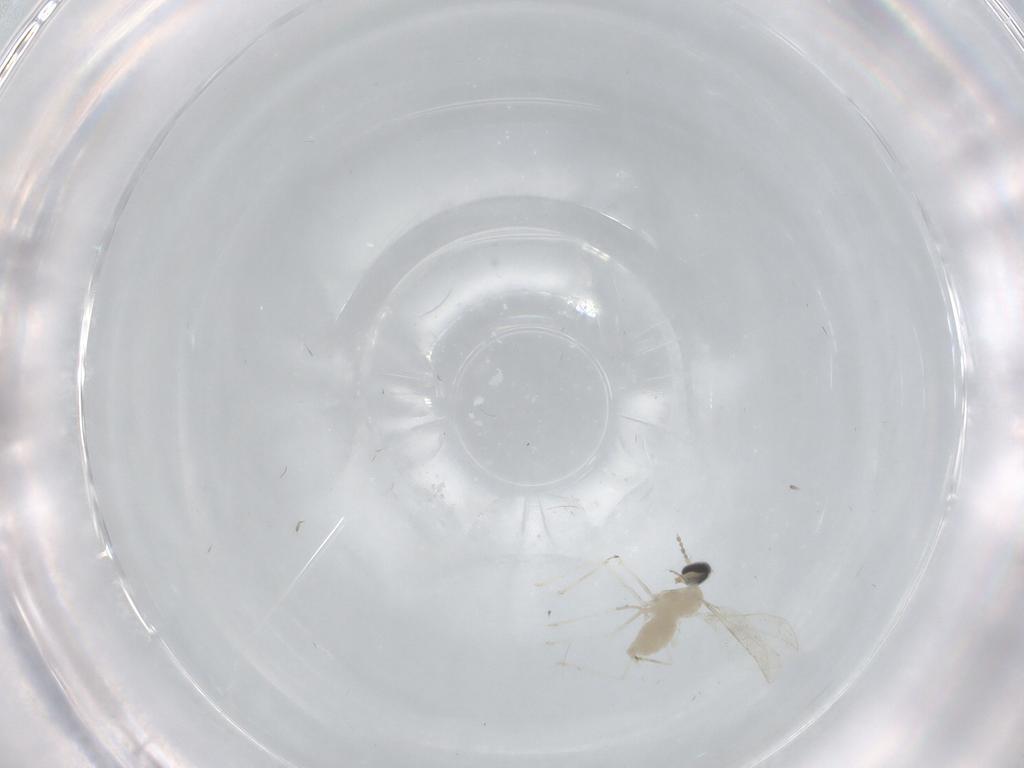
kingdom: Animalia
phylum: Arthropoda
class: Insecta
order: Diptera
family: Cecidomyiidae
